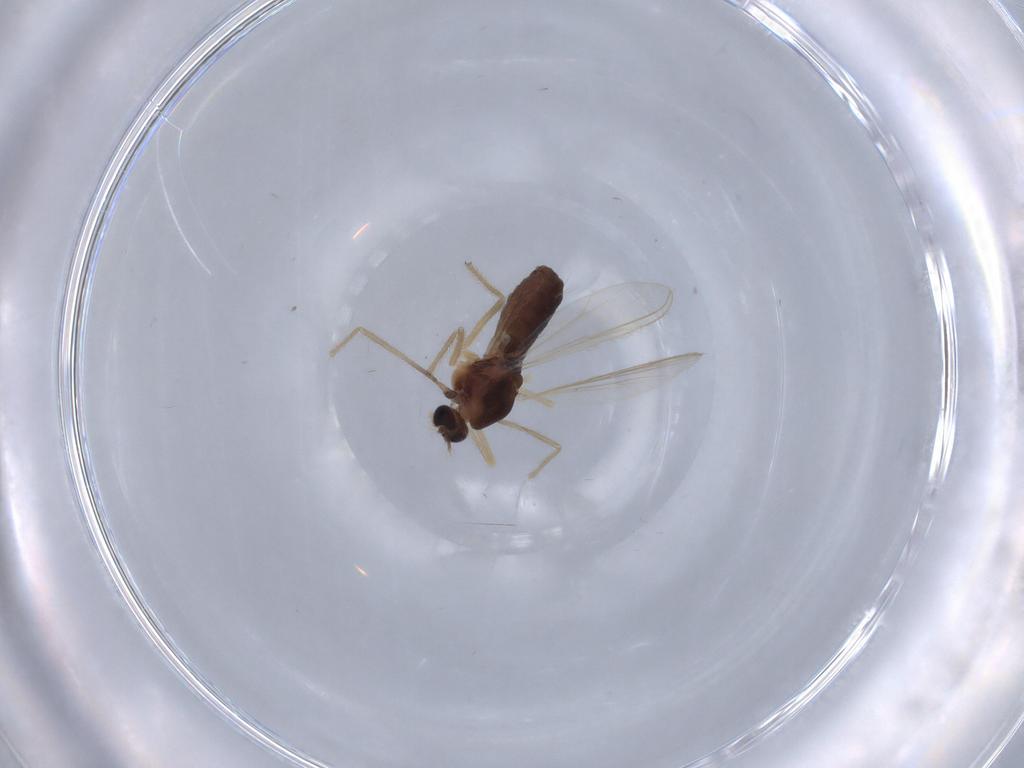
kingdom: Animalia
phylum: Arthropoda
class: Insecta
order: Diptera
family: Chironomidae
